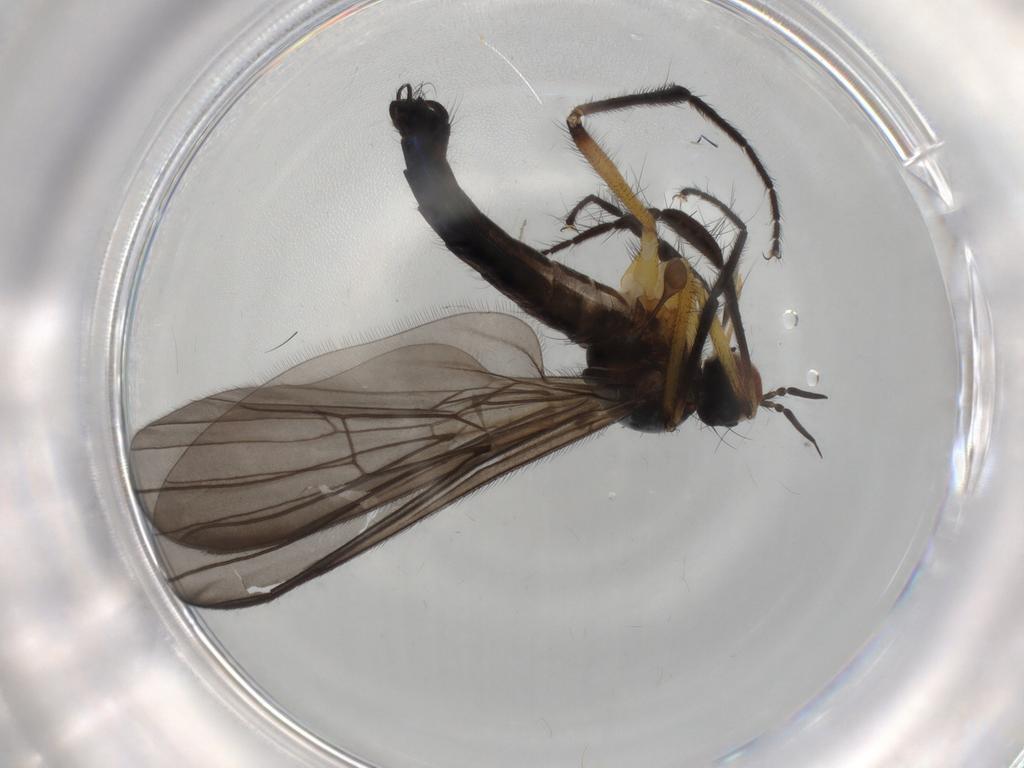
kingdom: Animalia
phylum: Arthropoda
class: Insecta
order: Diptera
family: Empididae
